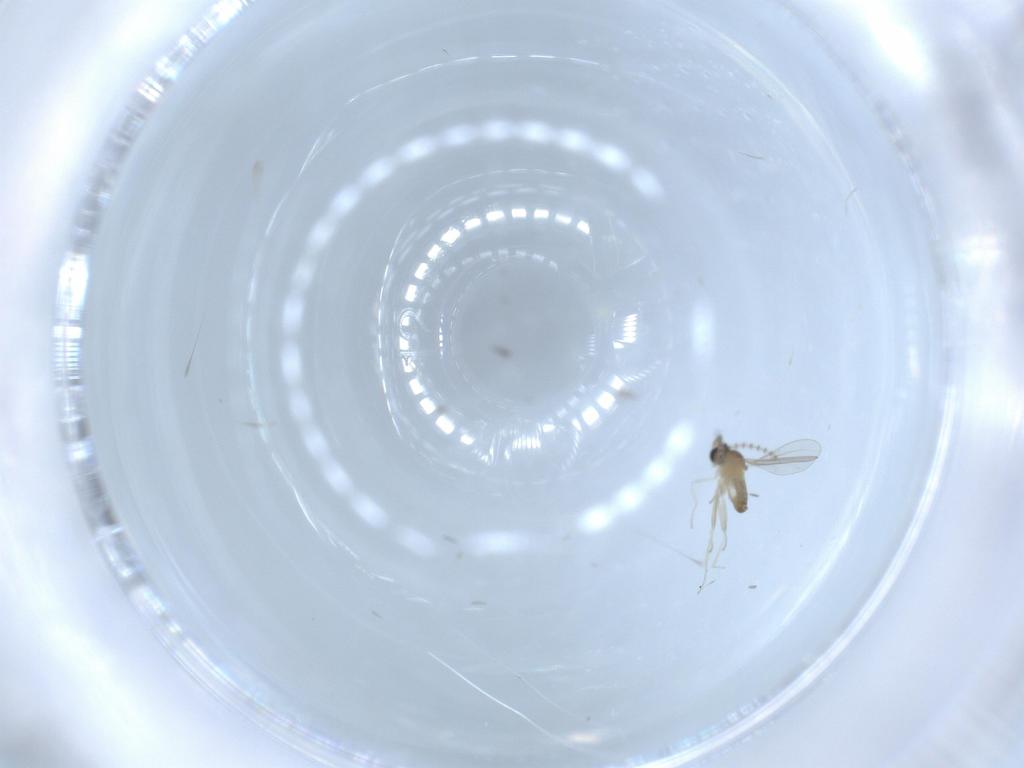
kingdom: Animalia
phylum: Arthropoda
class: Insecta
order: Diptera
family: Cecidomyiidae
